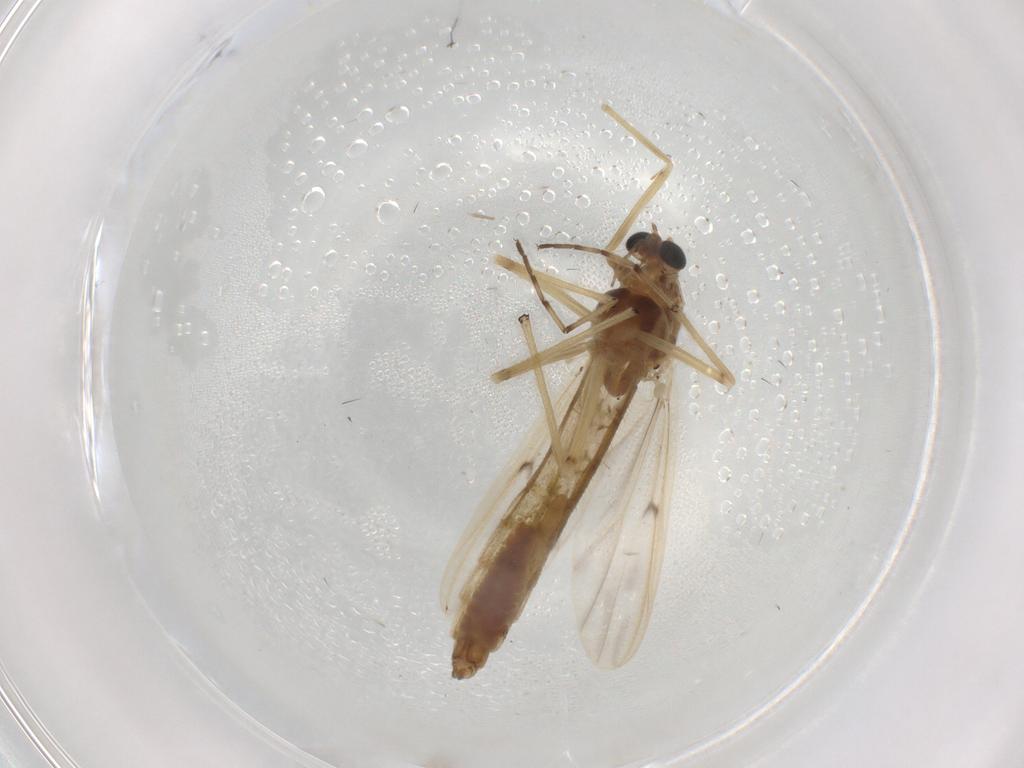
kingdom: Animalia
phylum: Arthropoda
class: Insecta
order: Diptera
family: Chironomidae
